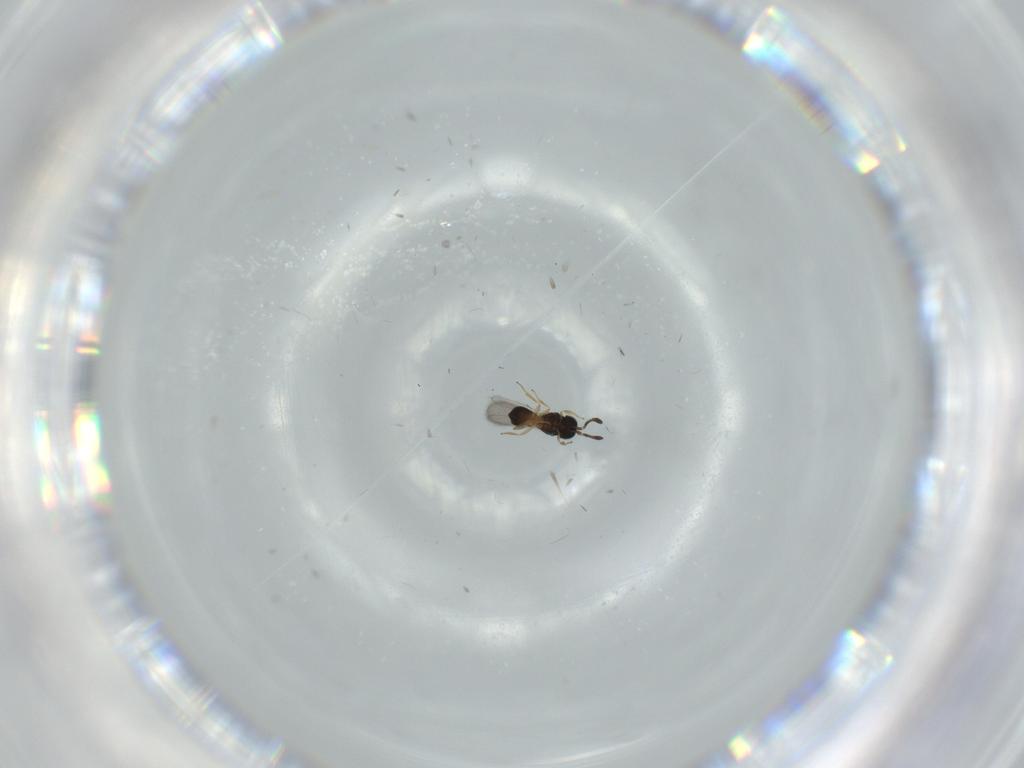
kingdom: Animalia
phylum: Arthropoda
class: Insecta
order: Hymenoptera
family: Scelionidae
